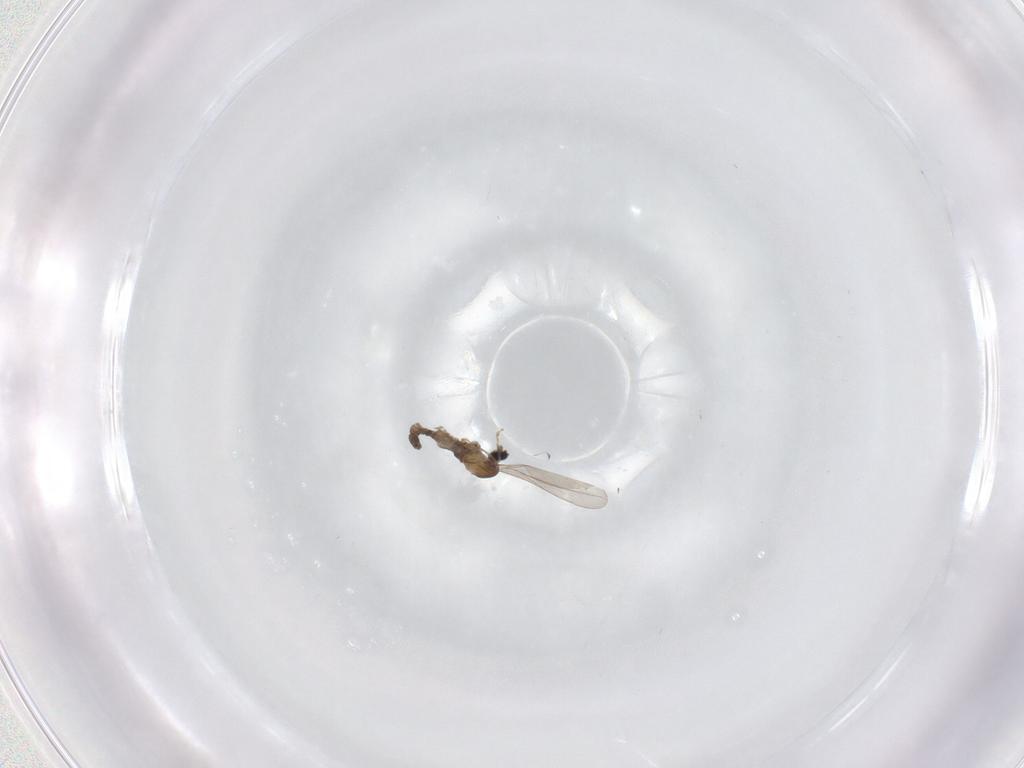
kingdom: Animalia
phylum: Arthropoda
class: Insecta
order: Diptera
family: Cecidomyiidae
